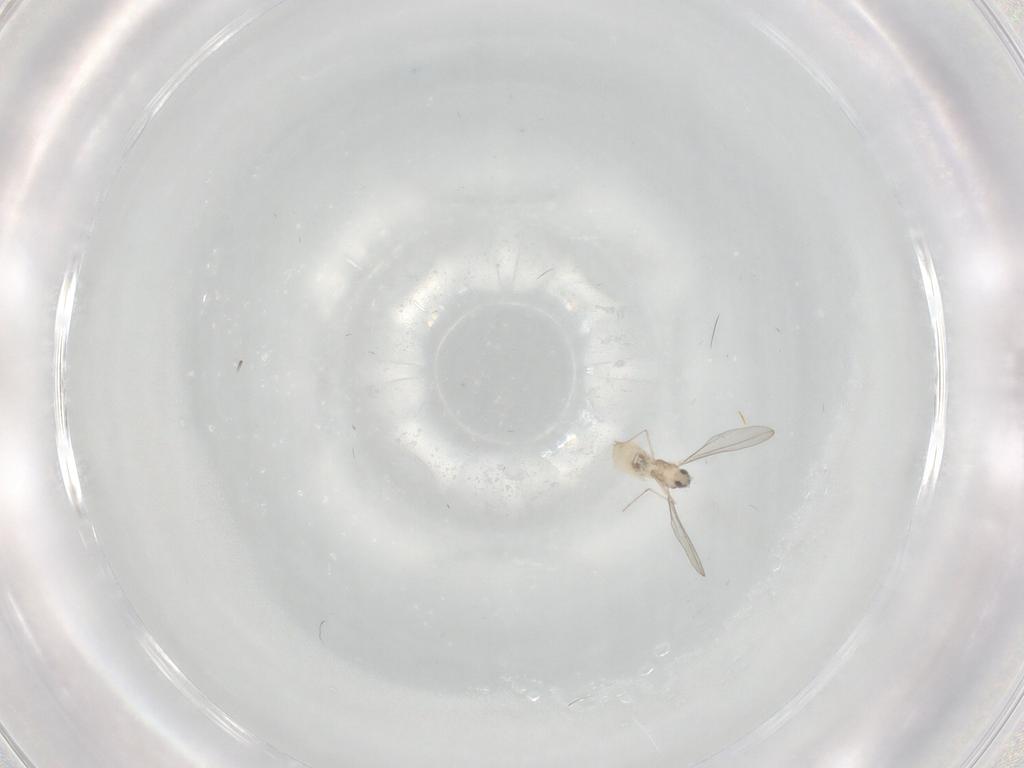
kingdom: Animalia
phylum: Arthropoda
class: Insecta
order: Diptera
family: Cecidomyiidae
